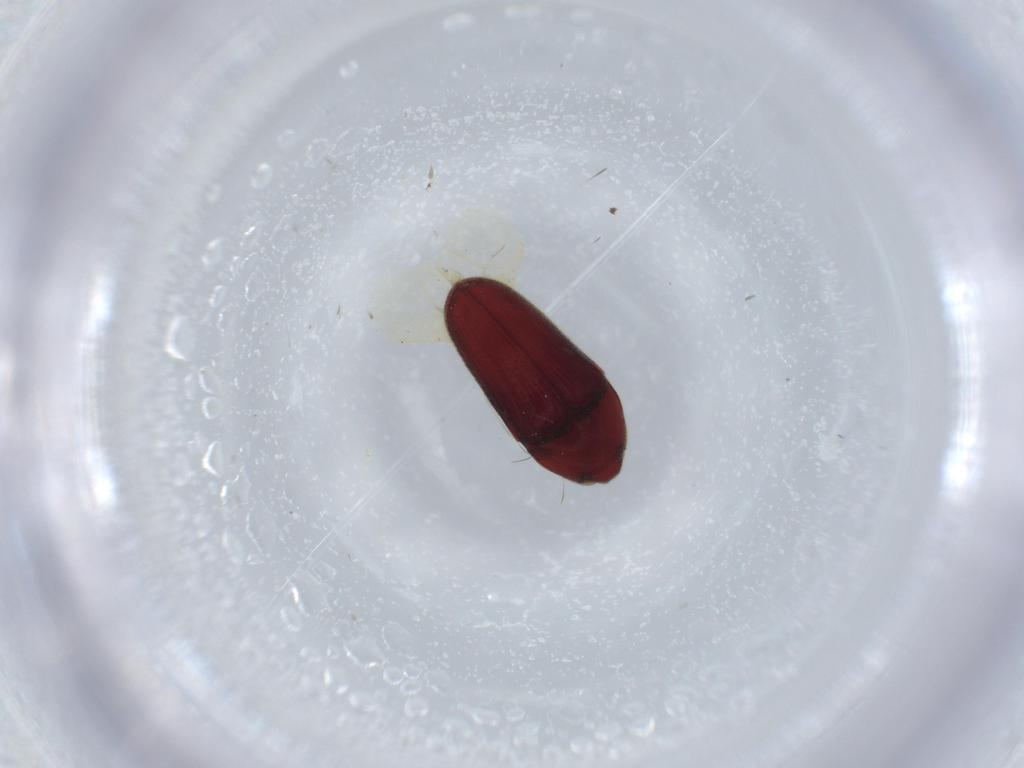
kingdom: Animalia
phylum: Arthropoda
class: Insecta
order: Coleoptera
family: Throscidae
